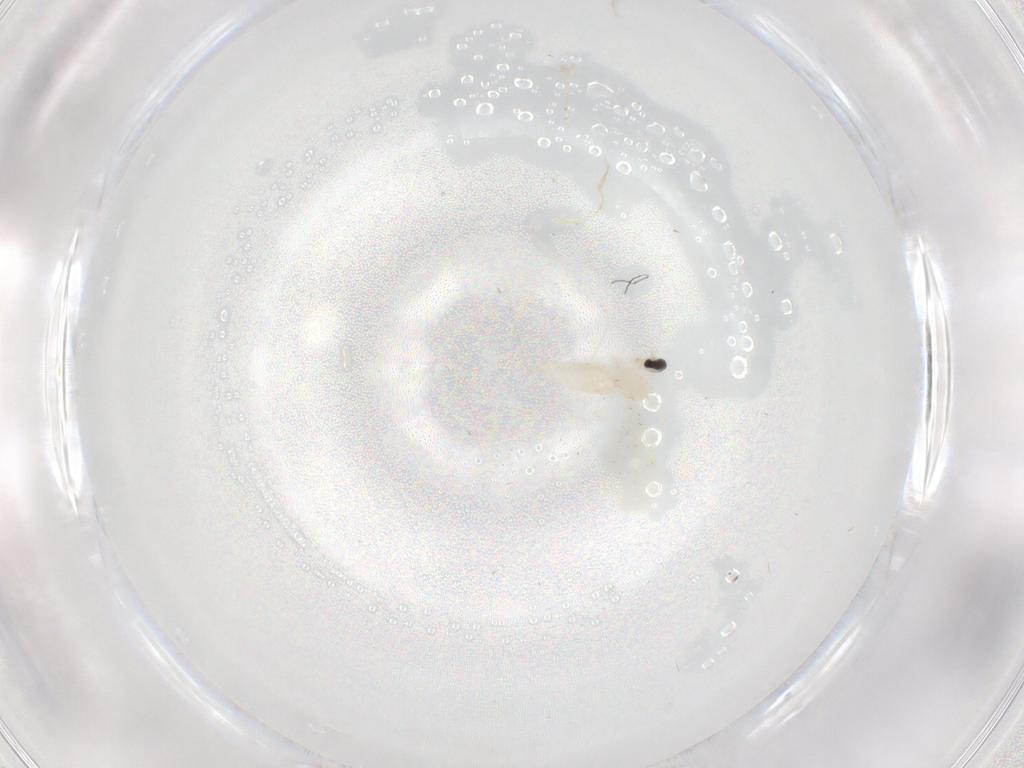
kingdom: Animalia
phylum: Arthropoda
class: Insecta
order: Diptera
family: Cecidomyiidae
